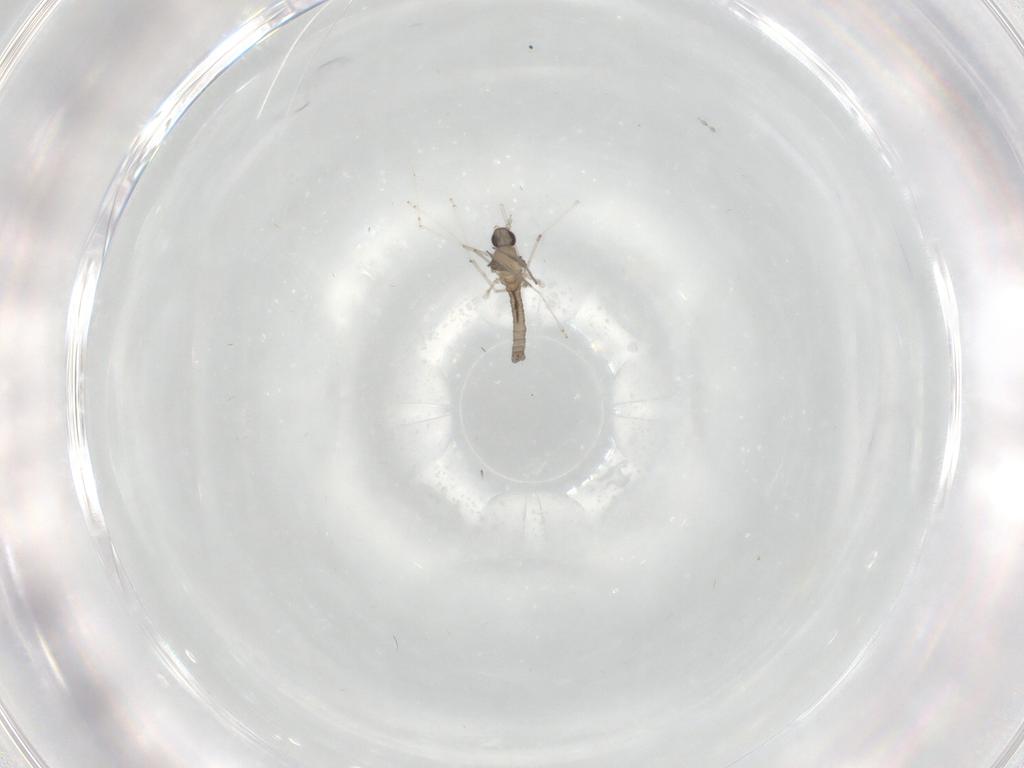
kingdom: Animalia
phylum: Arthropoda
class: Insecta
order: Diptera
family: Cecidomyiidae
